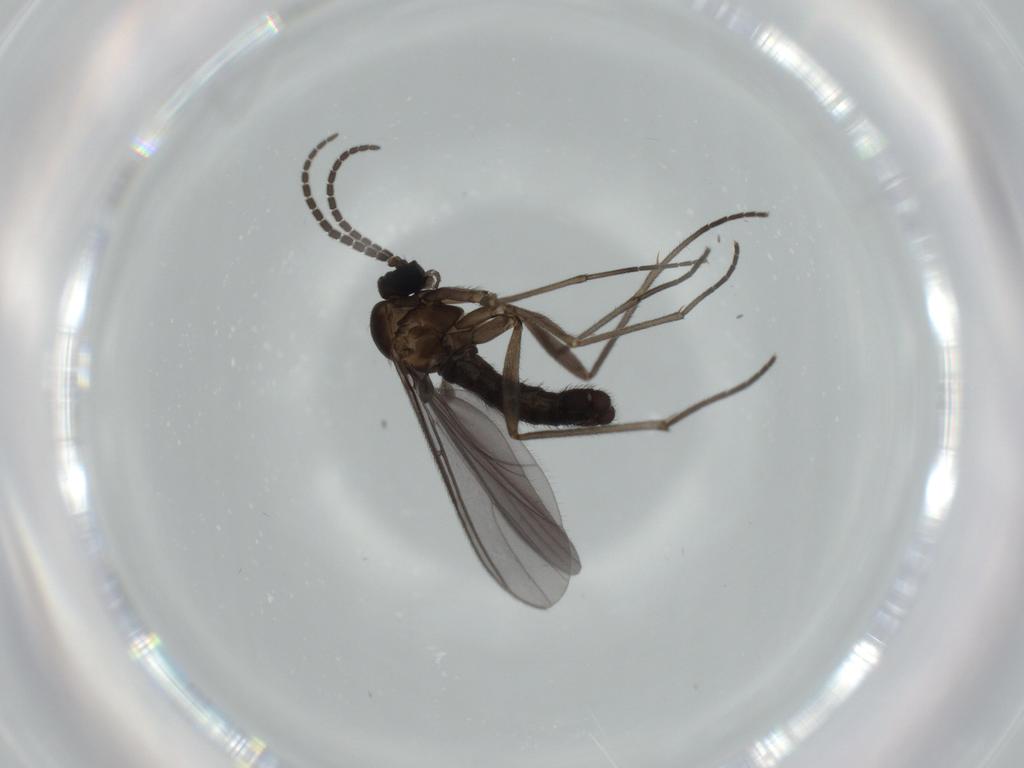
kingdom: Animalia
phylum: Arthropoda
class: Insecta
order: Diptera
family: Sciaridae
